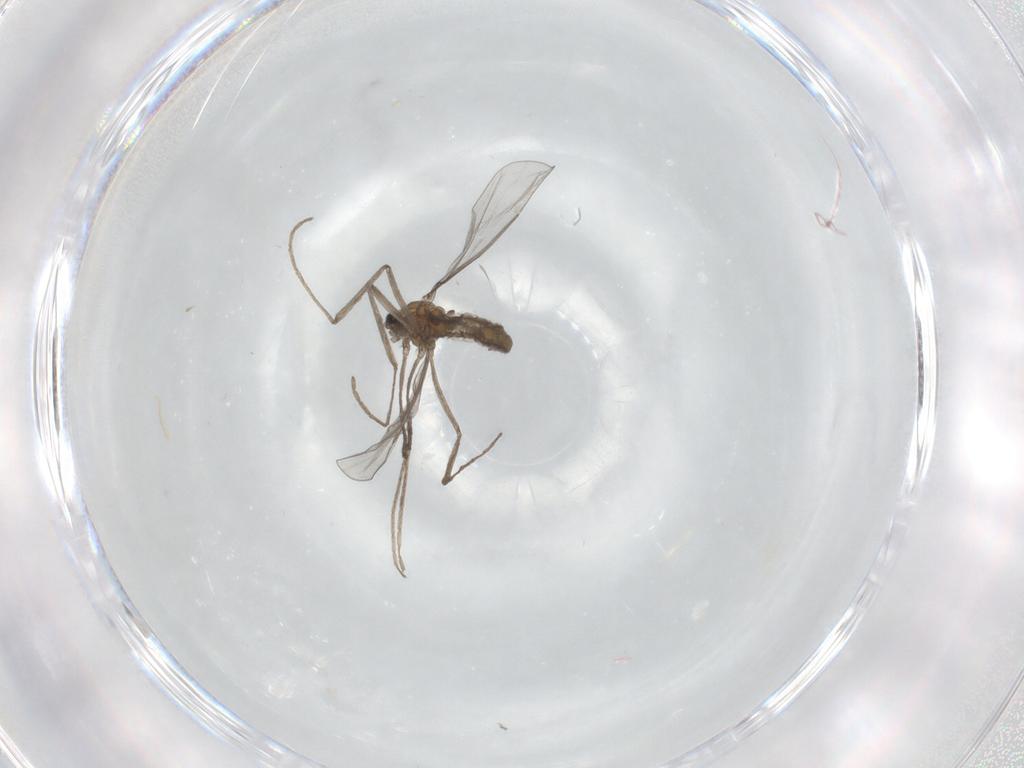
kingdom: Animalia
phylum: Arthropoda
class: Insecta
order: Diptera
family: Cecidomyiidae
